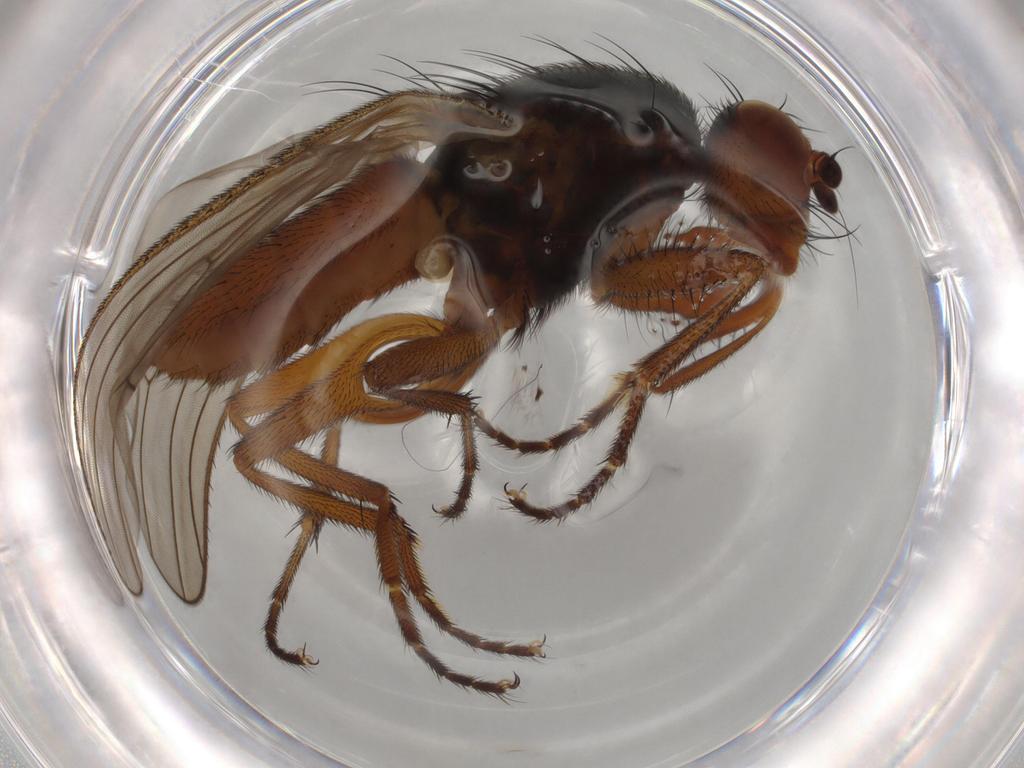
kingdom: Animalia
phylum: Arthropoda
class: Insecta
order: Diptera
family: Heleomyzidae
